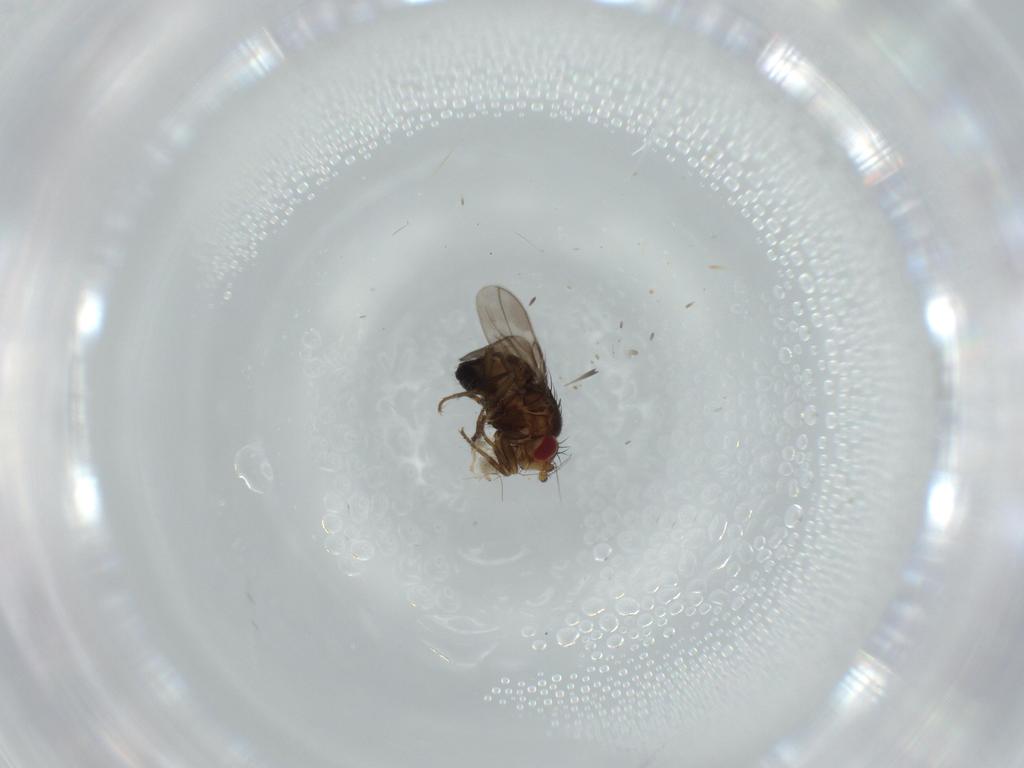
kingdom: Animalia
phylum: Arthropoda
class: Insecta
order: Diptera
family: Sphaeroceridae
